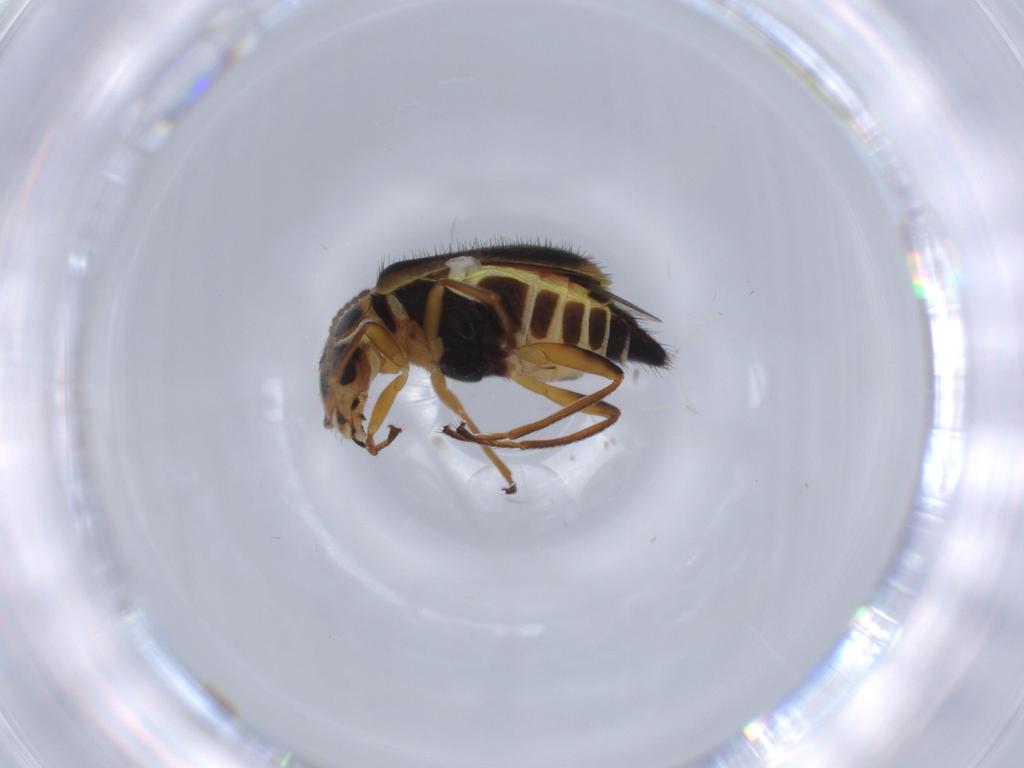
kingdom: Animalia
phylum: Arthropoda
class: Insecta
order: Coleoptera
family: Melyridae
